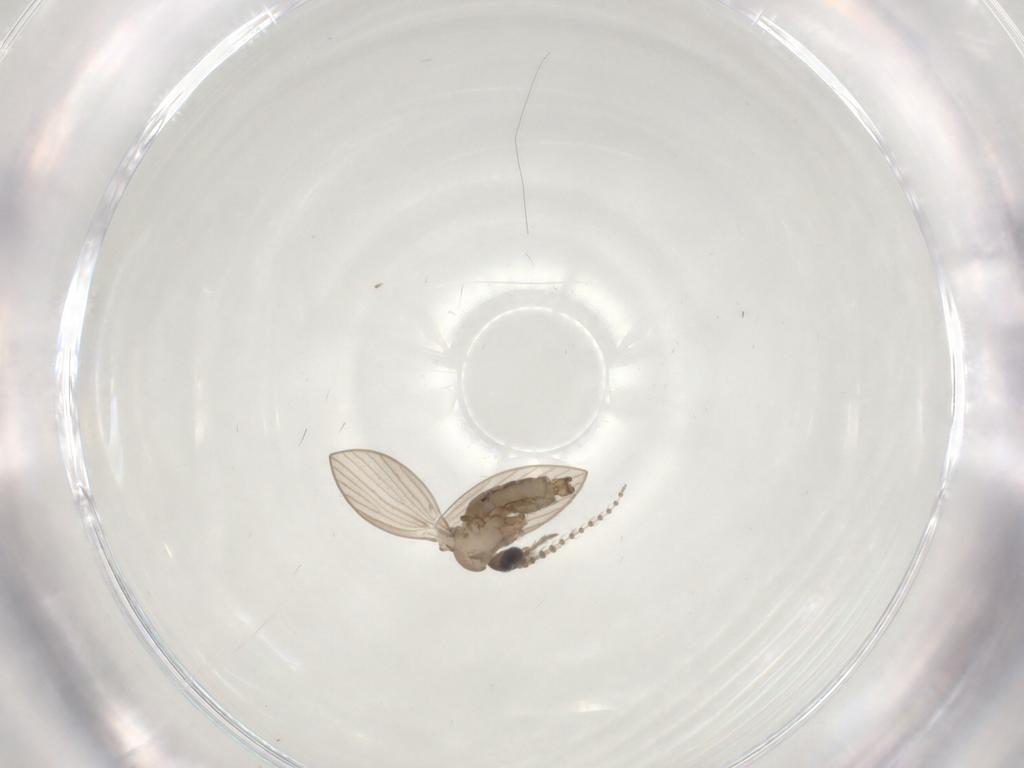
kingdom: Animalia
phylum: Arthropoda
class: Insecta
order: Diptera
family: Psychodidae
